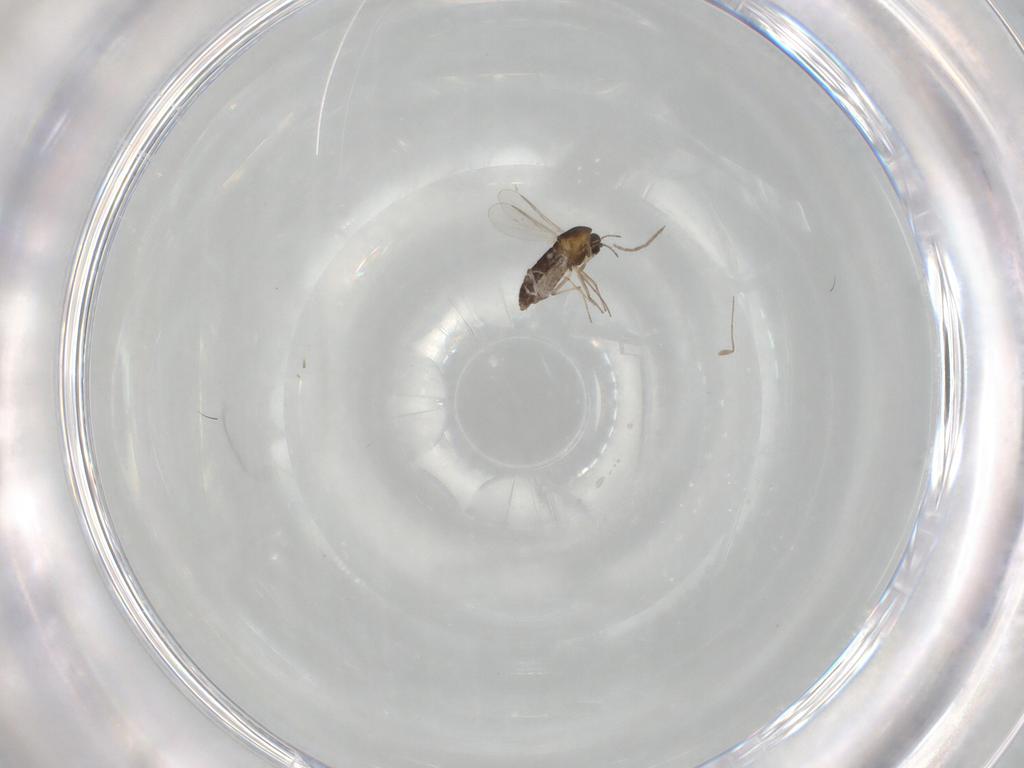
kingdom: Animalia
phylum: Arthropoda
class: Insecta
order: Diptera
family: Chironomidae
